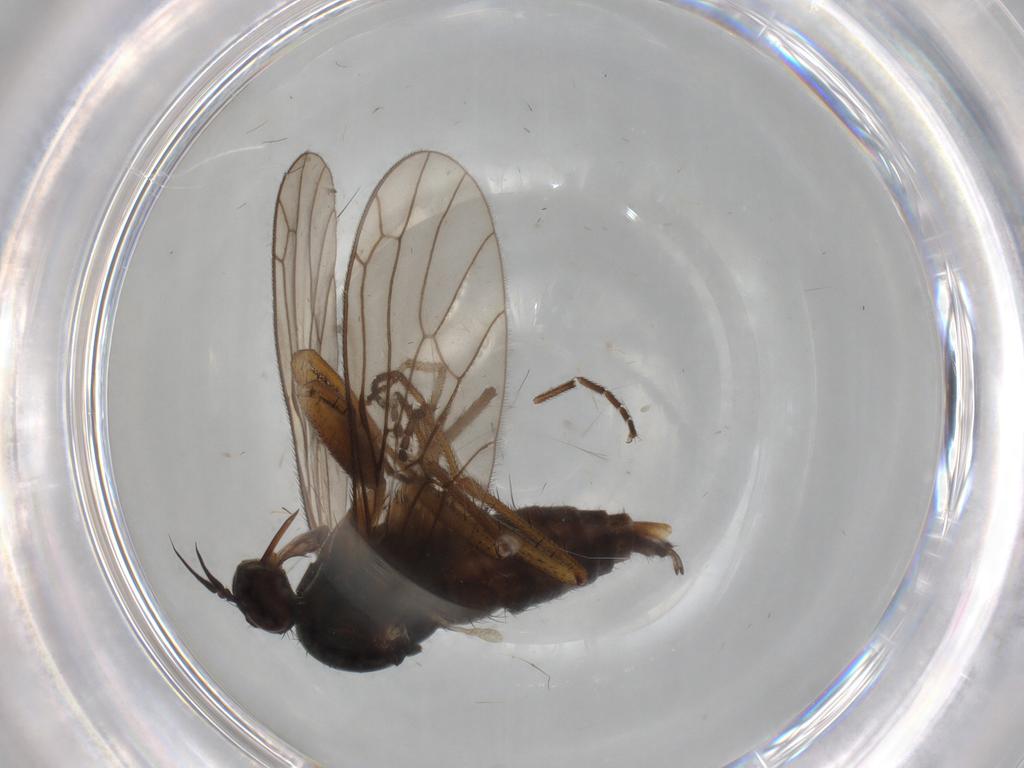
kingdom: Animalia
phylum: Arthropoda
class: Insecta
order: Diptera
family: Empididae
